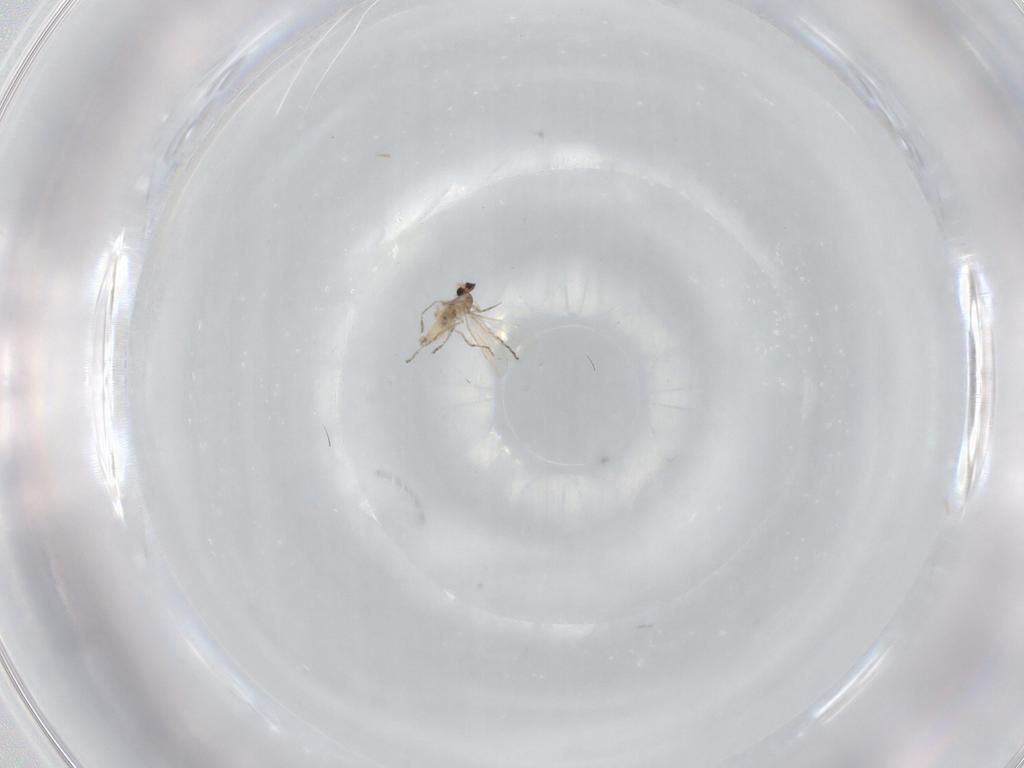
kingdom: Animalia
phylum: Arthropoda
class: Insecta
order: Diptera
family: Cecidomyiidae
